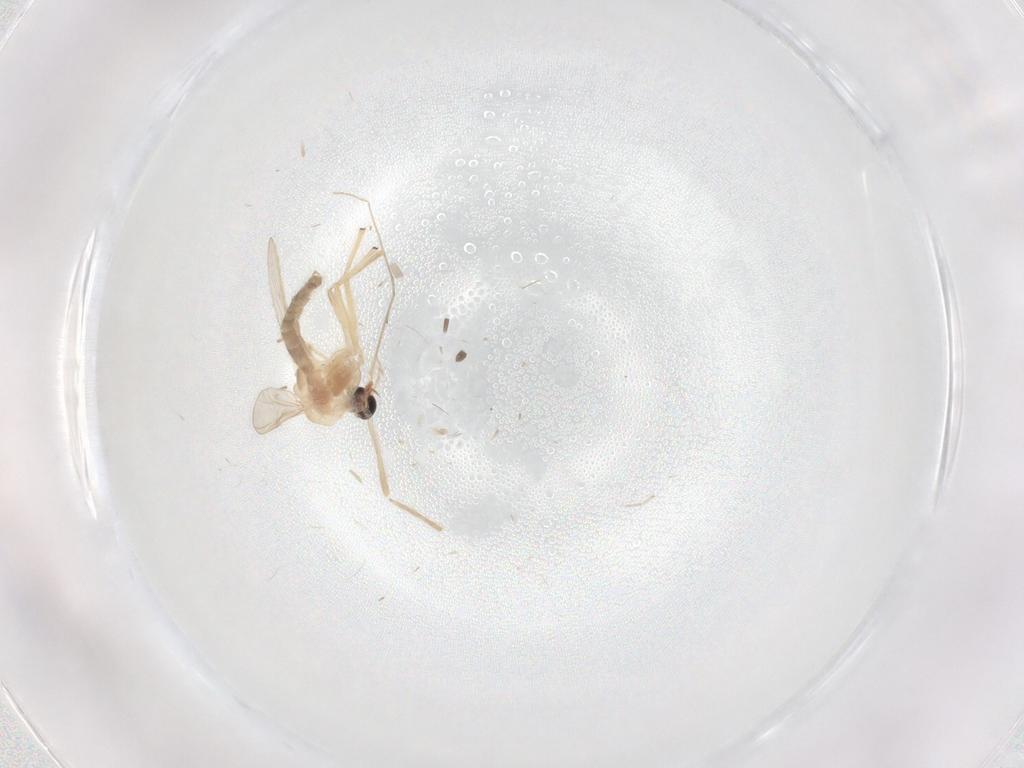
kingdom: Animalia
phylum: Arthropoda
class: Insecta
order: Diptera
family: Chironomidae
